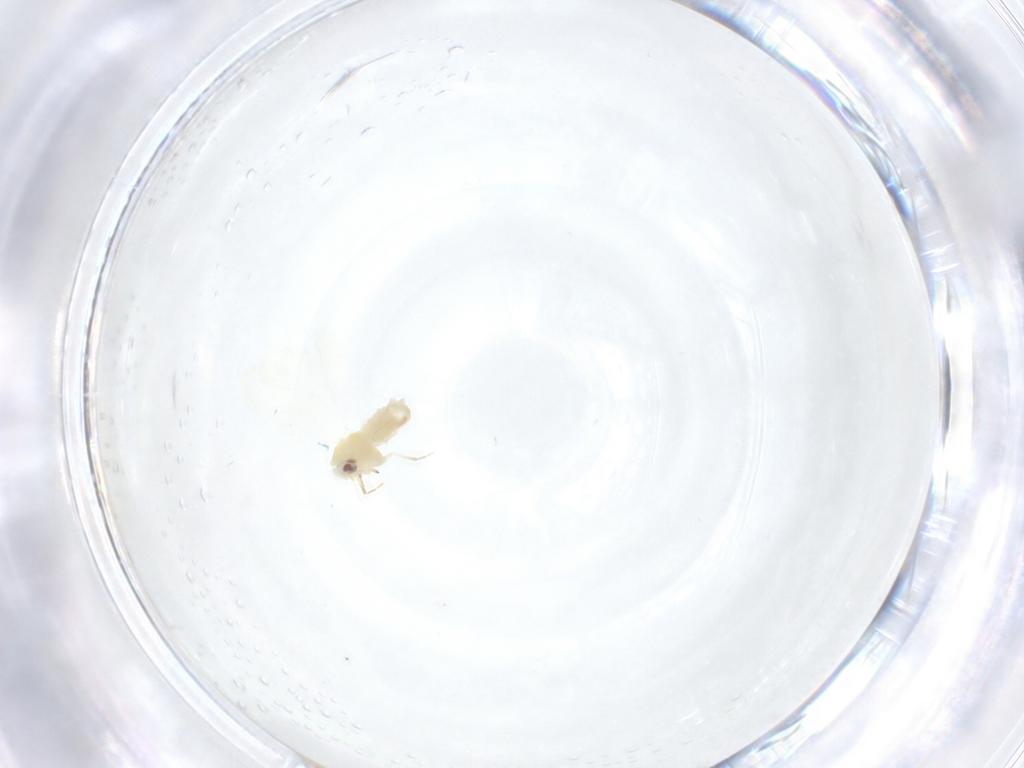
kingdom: Animalia
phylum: Arthropoda
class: Insecta
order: Hemiptera
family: Aleyrodidae
